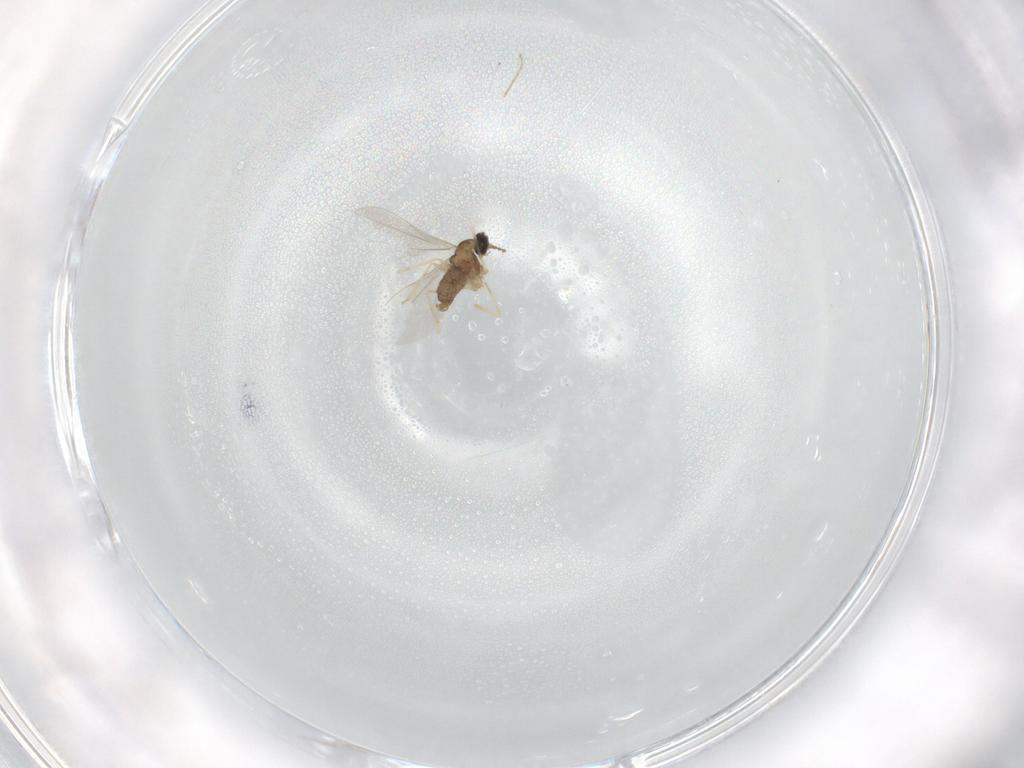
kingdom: Animalia
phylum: Arthropoda
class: Insecta
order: Diptera
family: Cecidomyiidae
